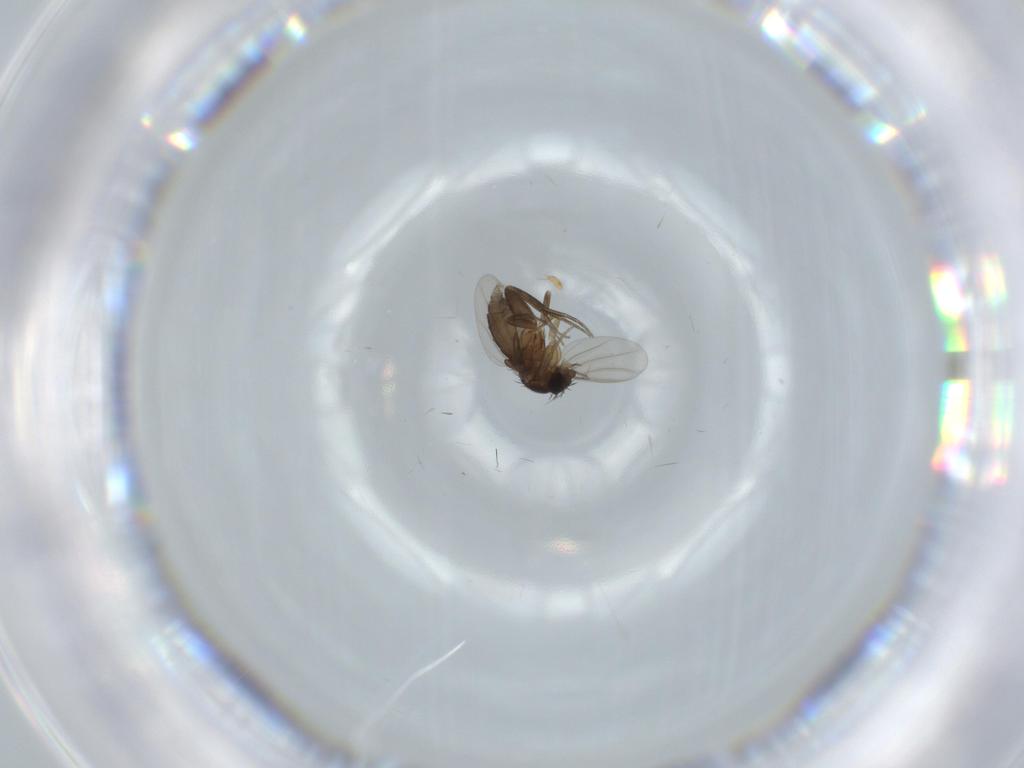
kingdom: Animalia
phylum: Arthropoda
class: Insecta
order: Diptera
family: Phoridae
